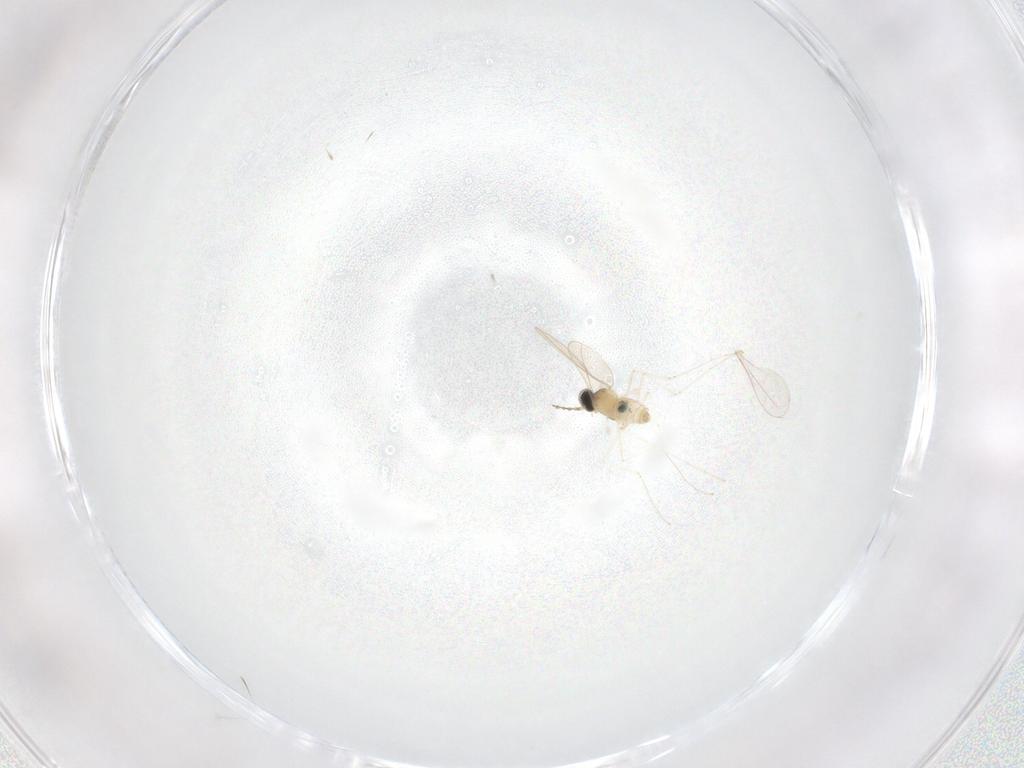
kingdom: Animalia
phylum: Arthropoda
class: Insecta
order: Diptera
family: Cecidomyiidae
